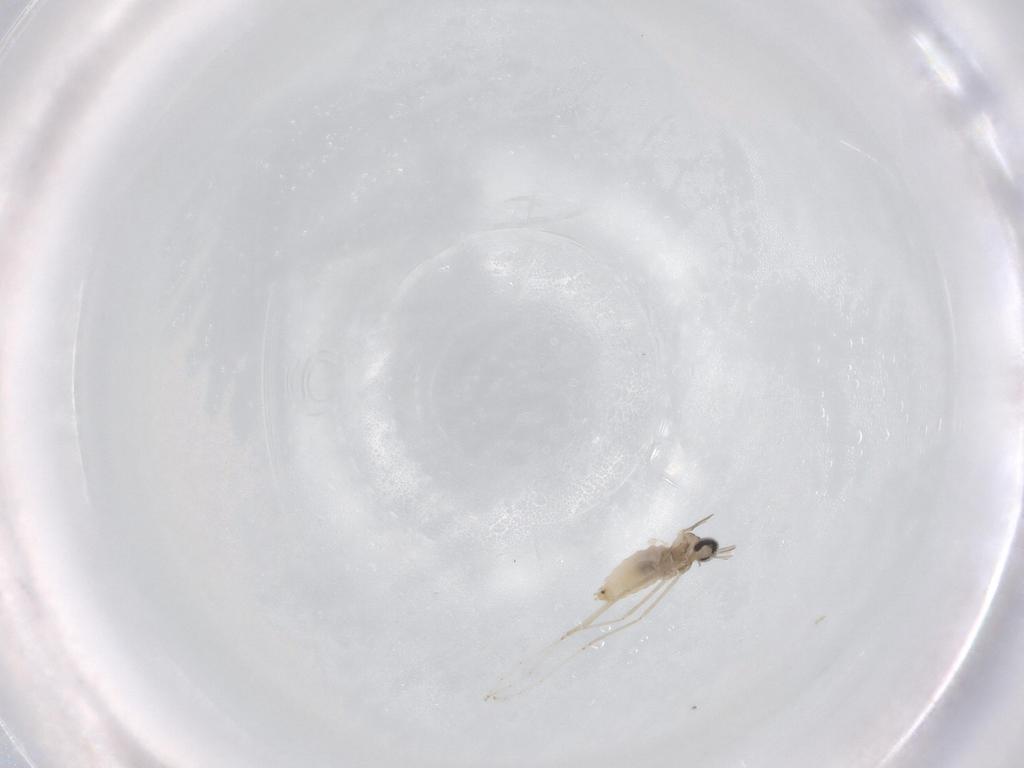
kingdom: Animalia
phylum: Arthropoda
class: Insecta
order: Diptera
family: Cecidomyiidae
